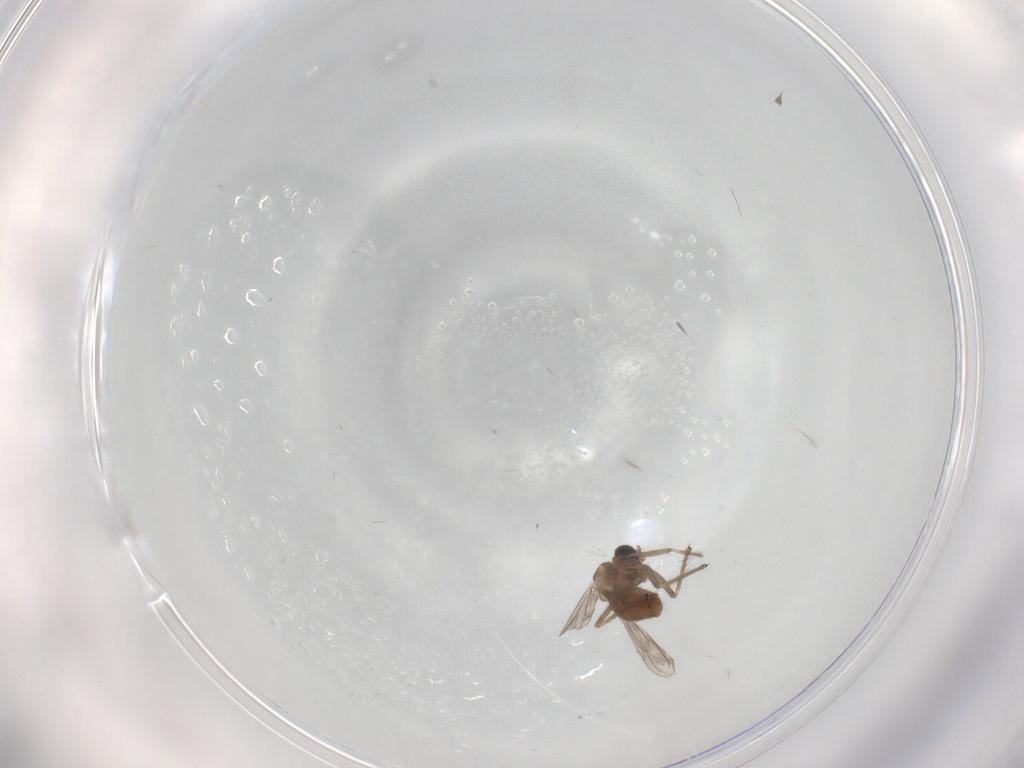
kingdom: Animalia
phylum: Arthropoda
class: Insecta
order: Diptera
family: Chironomidae
